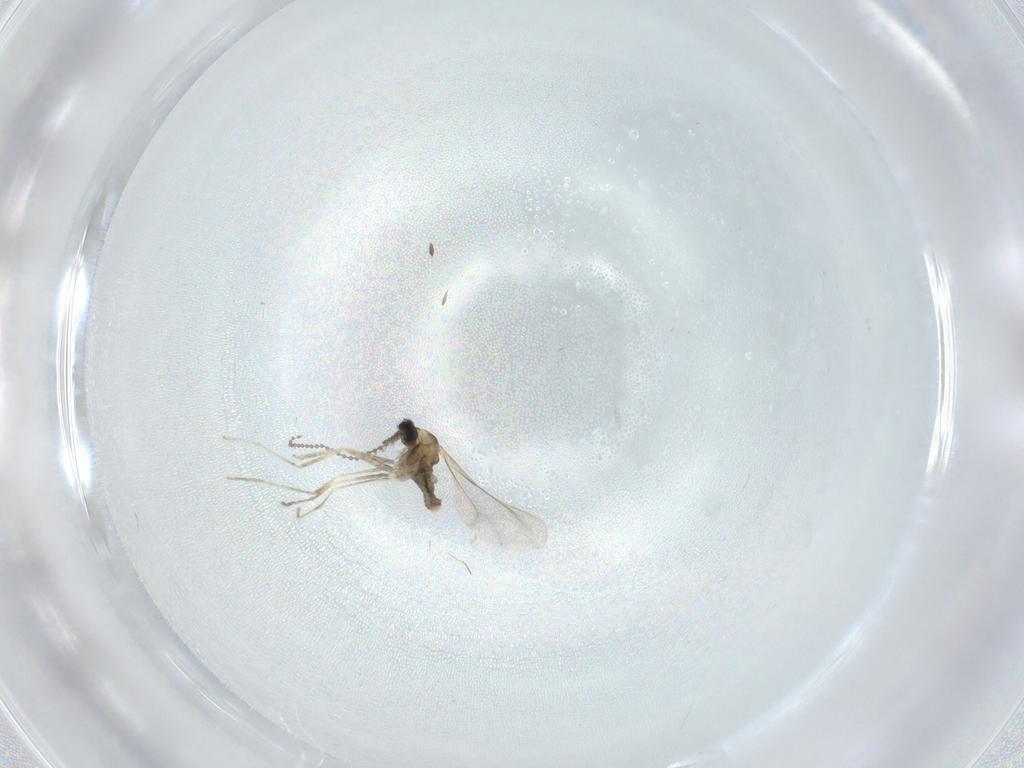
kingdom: Animalia
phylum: Arthropoda
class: Insecta
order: Diptera
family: Cecidomyiidae
